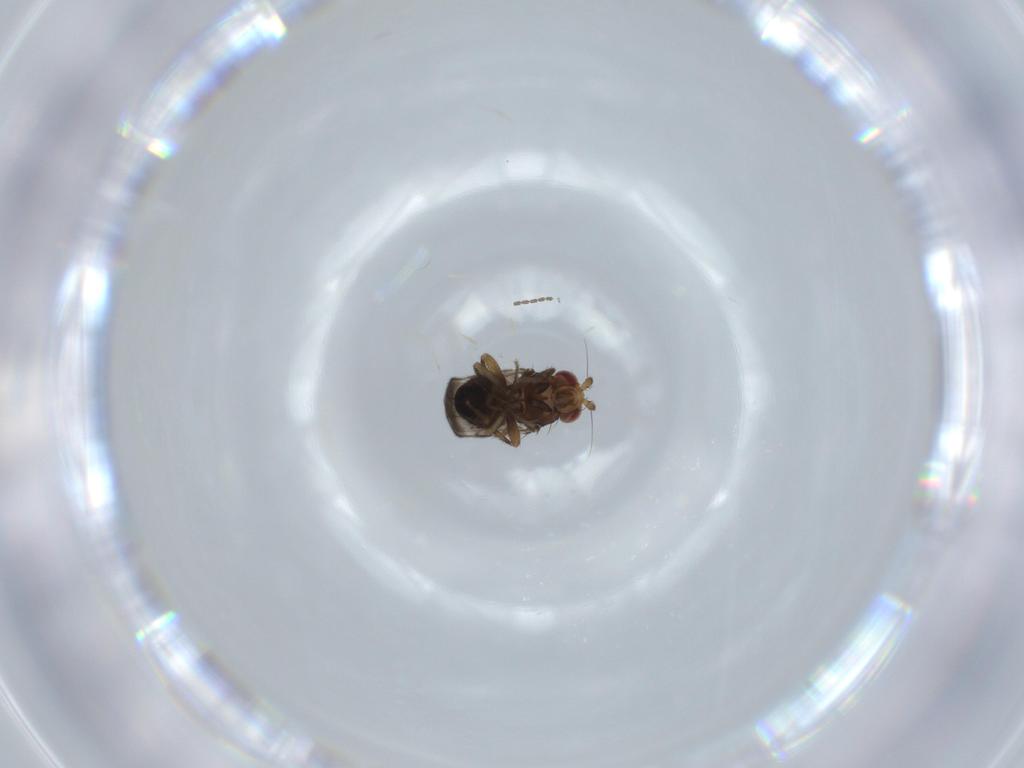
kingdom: Animalia
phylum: Arthropoda
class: Insecta
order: Diptera
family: Sphaeroceridae
